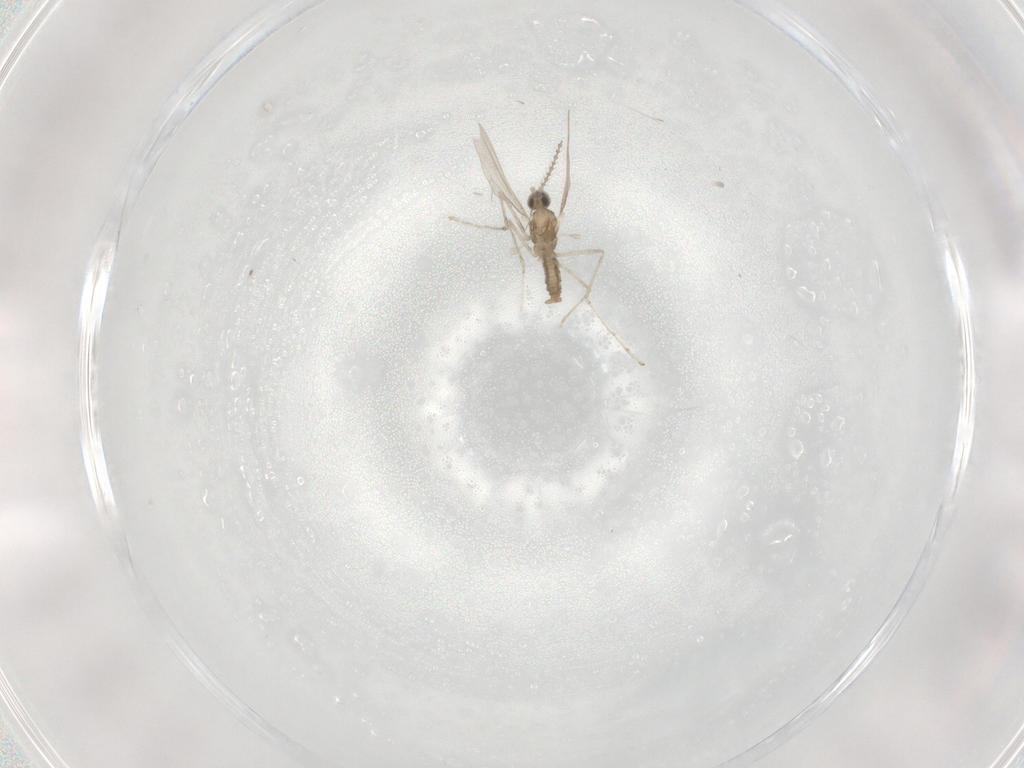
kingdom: Animalia
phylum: Arthropoda
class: Insecta
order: Diptera
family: Cecidomyiidae
